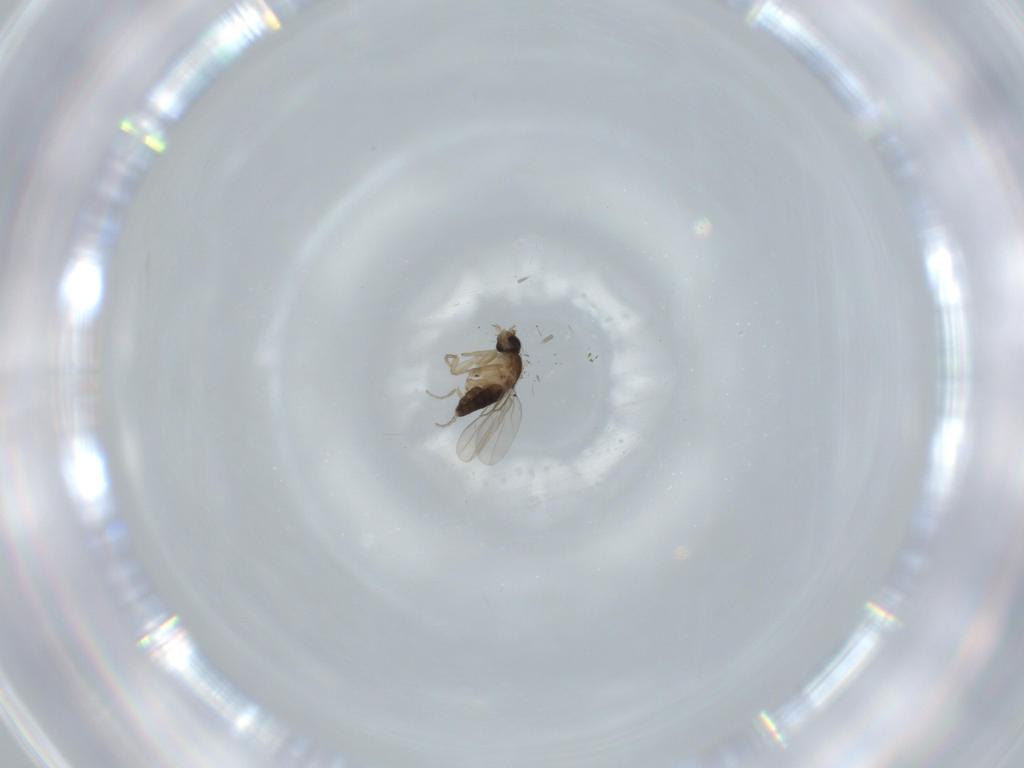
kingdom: Animalia
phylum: Arthropoda
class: Insecta
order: Diptera
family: Phoridae
